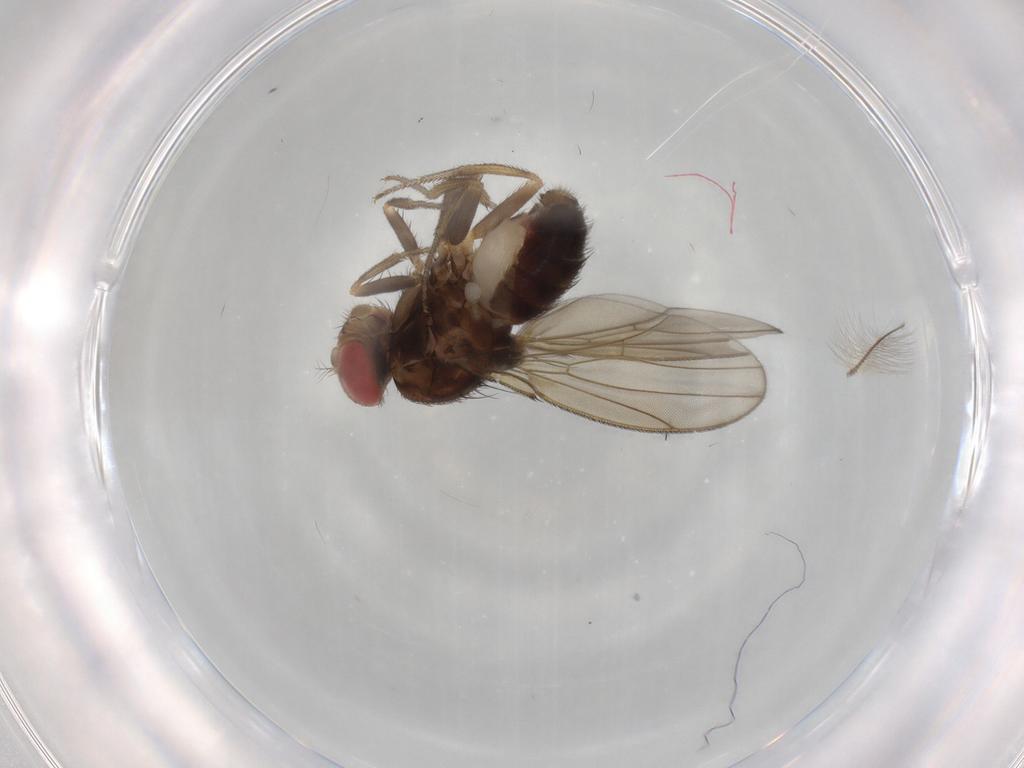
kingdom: Animalia
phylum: Arthropoda
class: Insecta
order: Diptera
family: Drosophilidae
